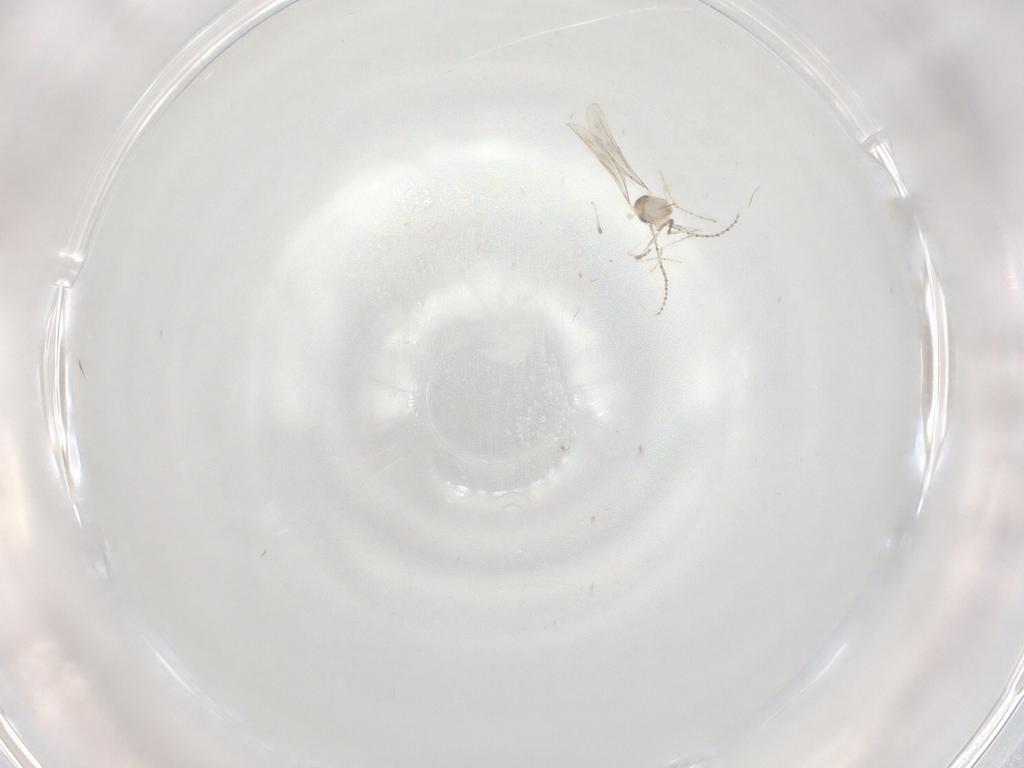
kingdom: Animalia
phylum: Arthropoda
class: Insecta
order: Diptera
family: Cecidomyiidae
